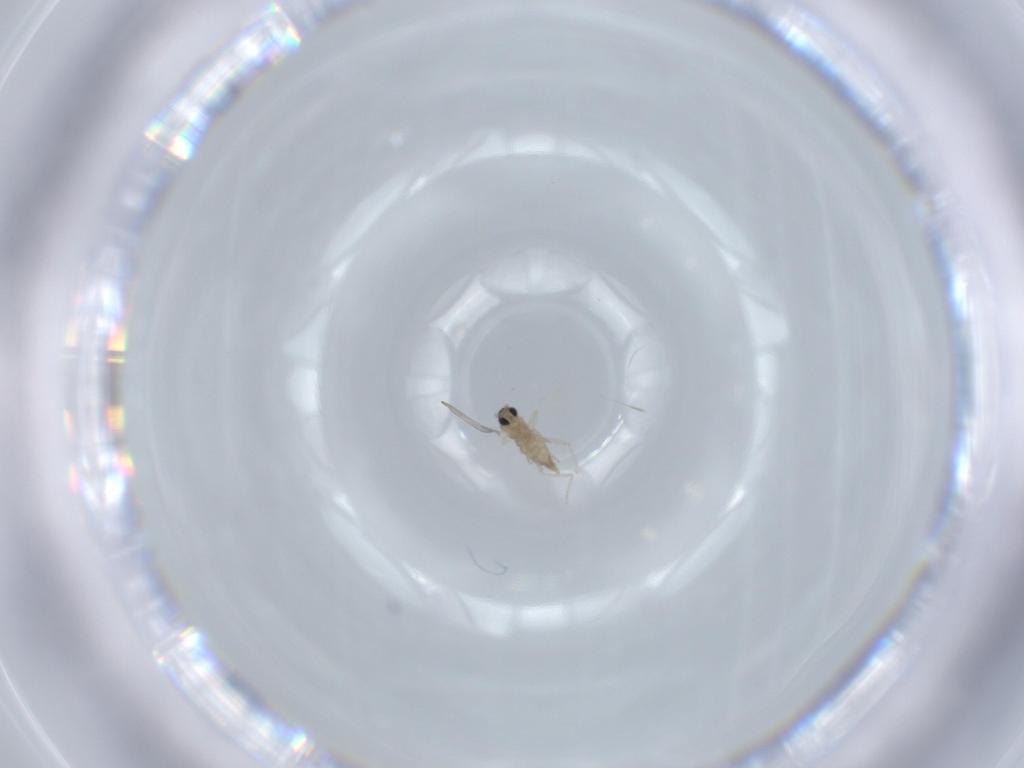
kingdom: Animalia
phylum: Arthropoda
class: Insecta
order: Diptera
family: Cecidomyiidae
